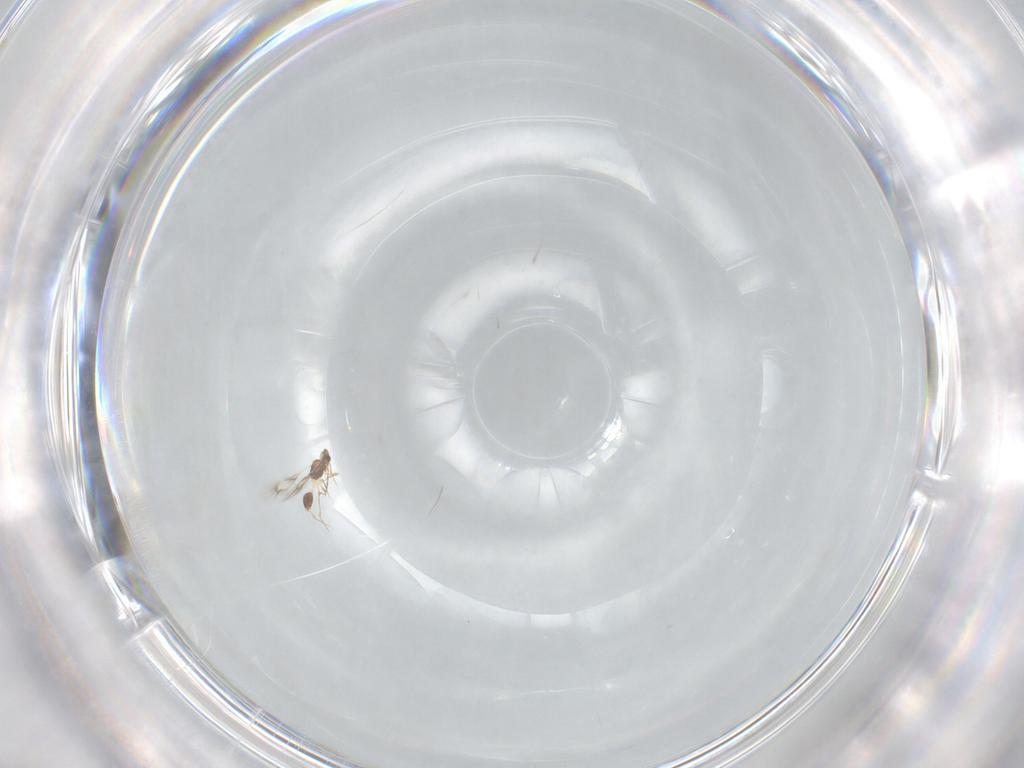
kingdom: Animalia
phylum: Arthropoda
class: Insecta
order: Hymenoptera
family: Mymarommatidae
